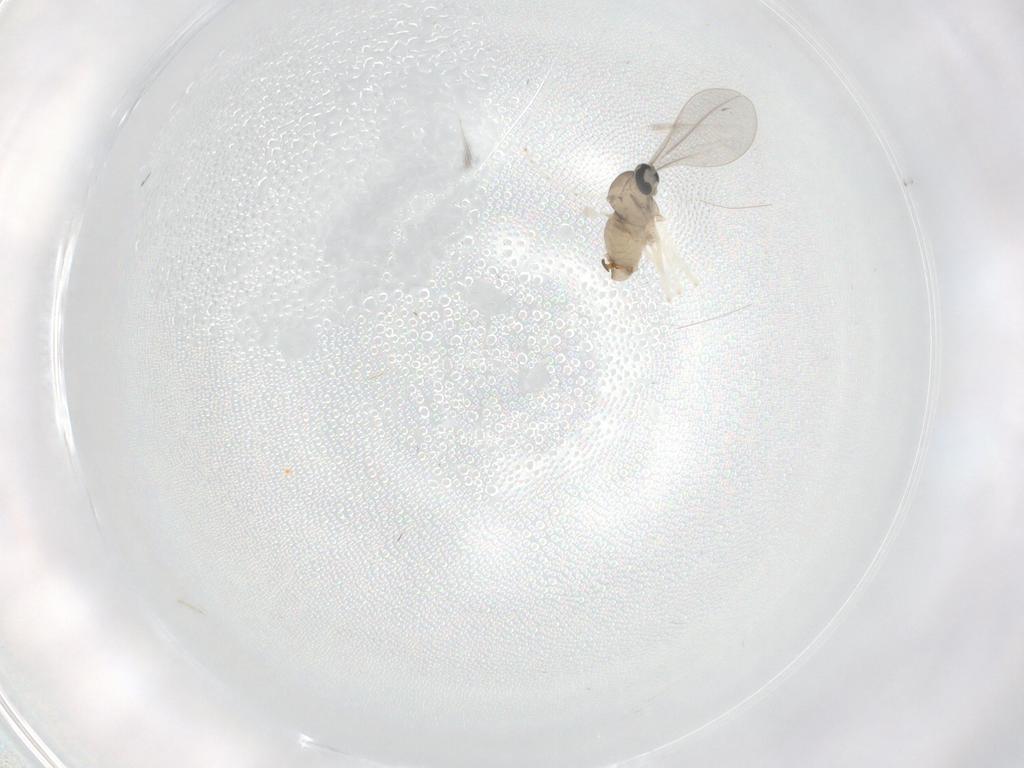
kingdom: Animalia
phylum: Arthropoda
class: Insecta
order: Diptera
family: Cecidomyiidae
